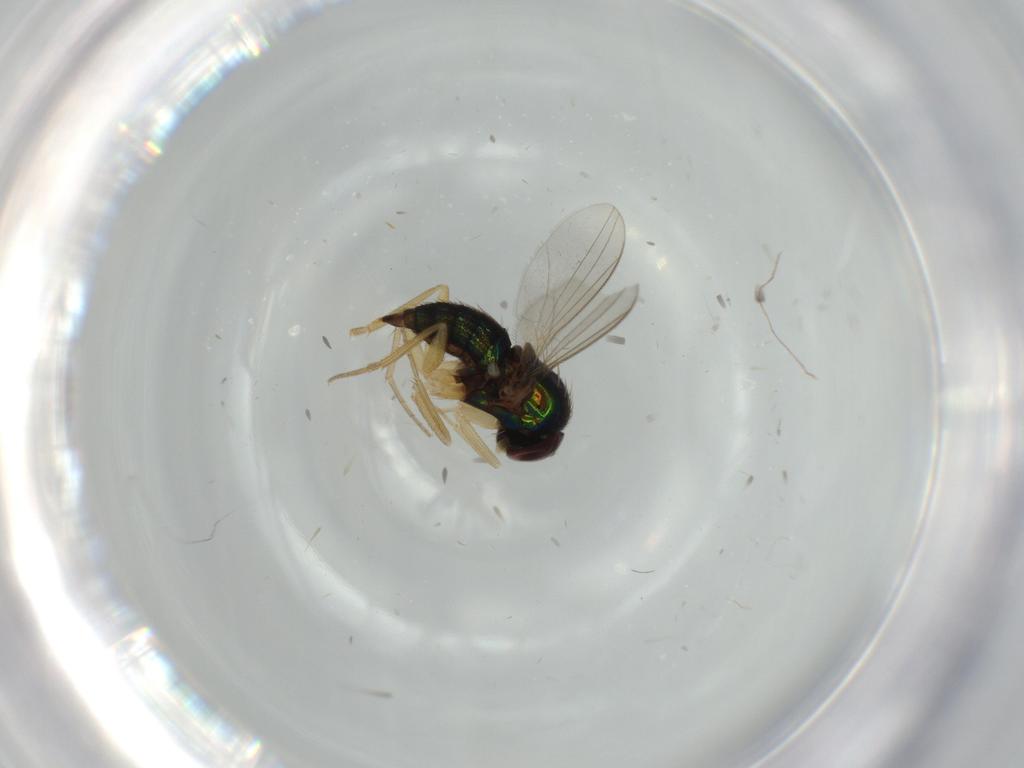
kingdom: Animalia
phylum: Arthropoda
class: Insecta
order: Diptera
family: Dolichopodidae
